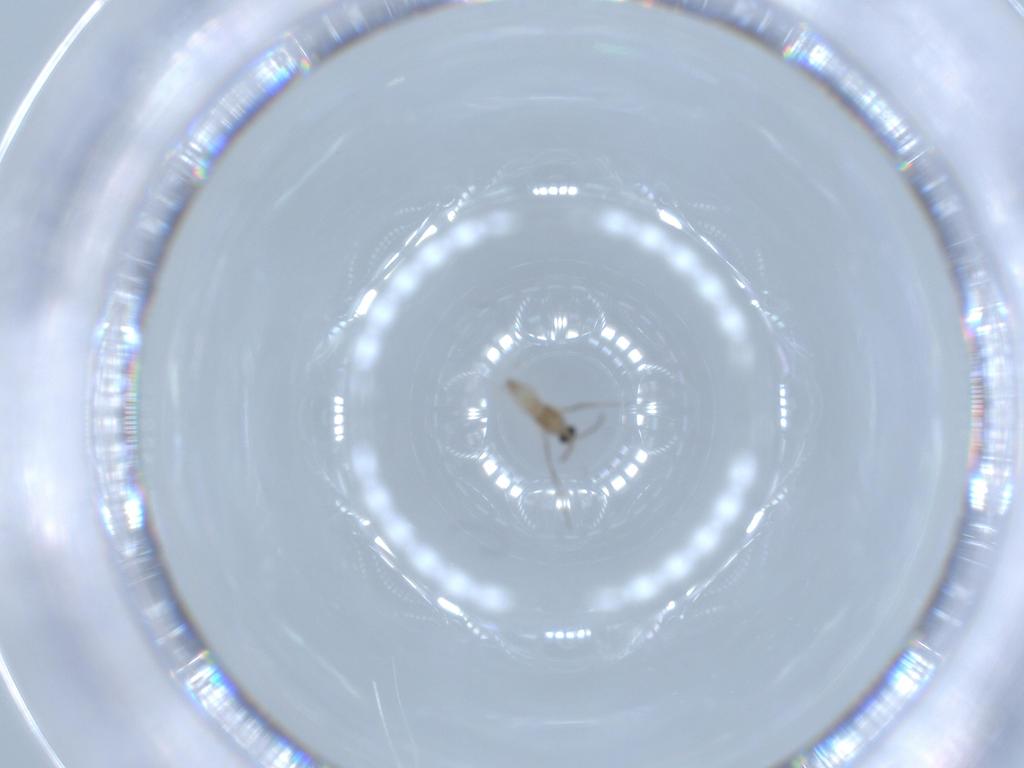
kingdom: Animalia
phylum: Arthropoda
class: Insecta
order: Diptera
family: Cecidomyiidae
